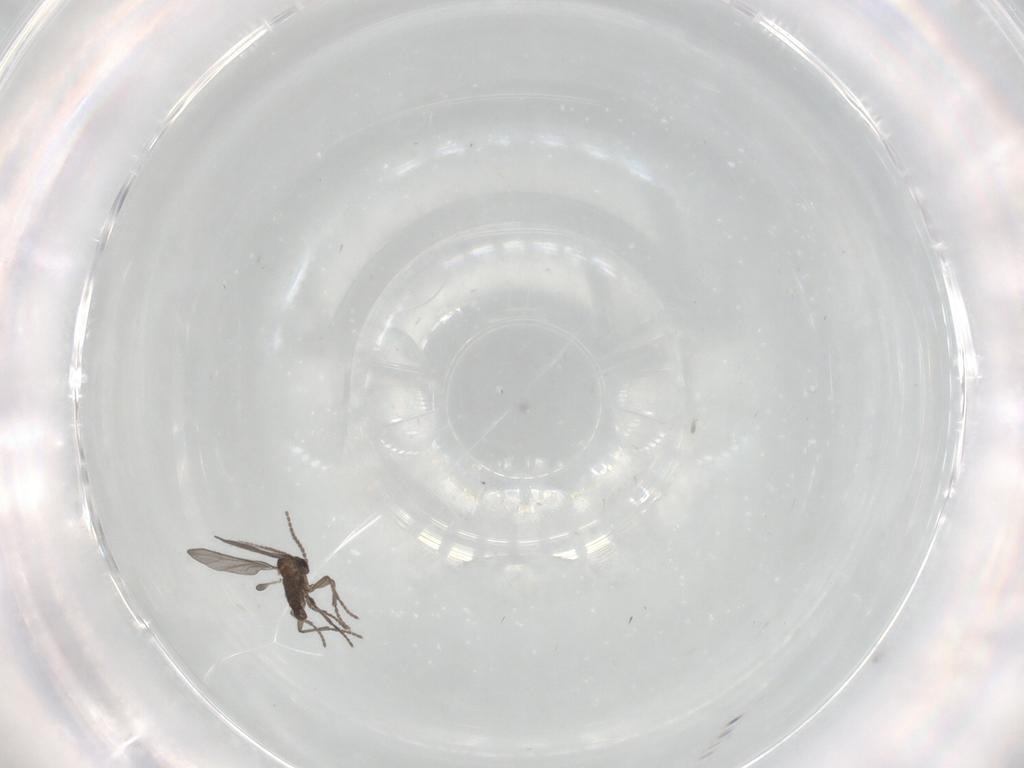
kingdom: Animalia
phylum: Arthropoda
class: Insecta
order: Diptera
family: Sciaridae
